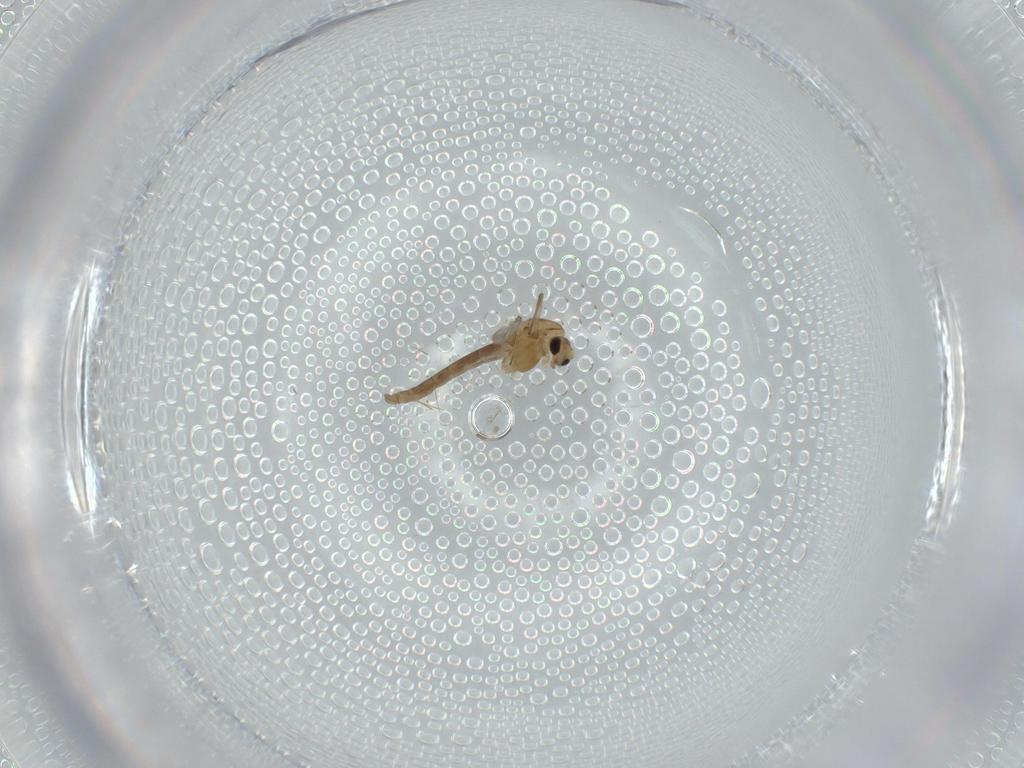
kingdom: Animalia
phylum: Arthropoda
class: Insecta
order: Diptera
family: Chironomidae
